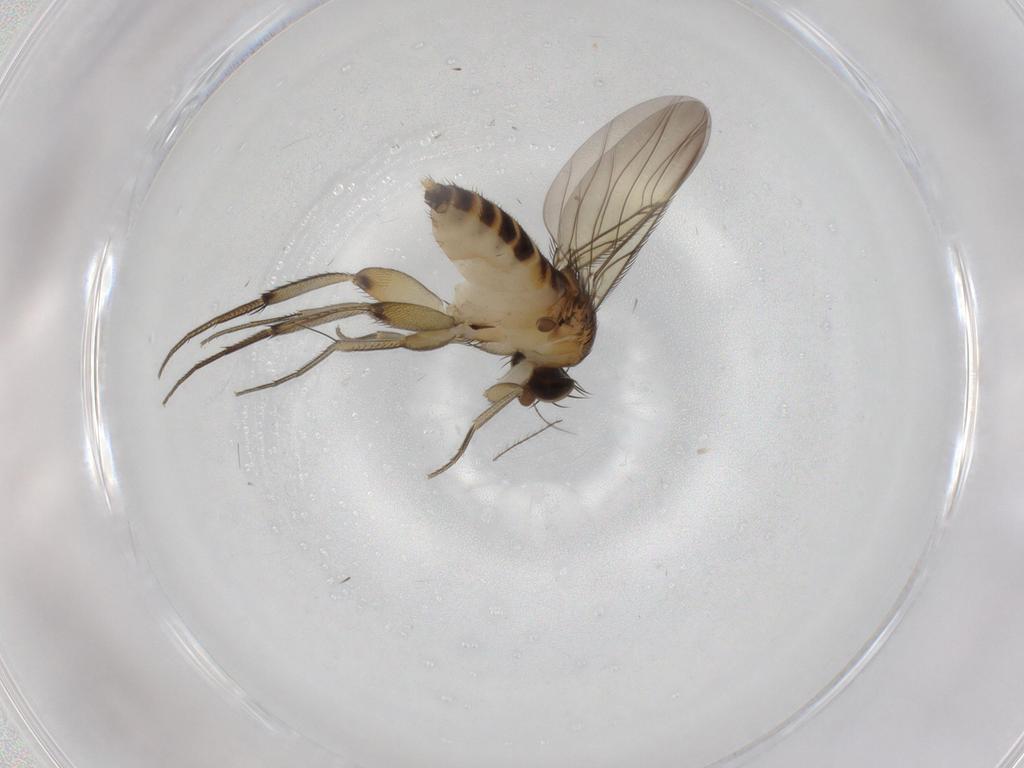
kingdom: Animalia
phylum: Arthropoda
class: Insecta
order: Diptera
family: Phoridae
